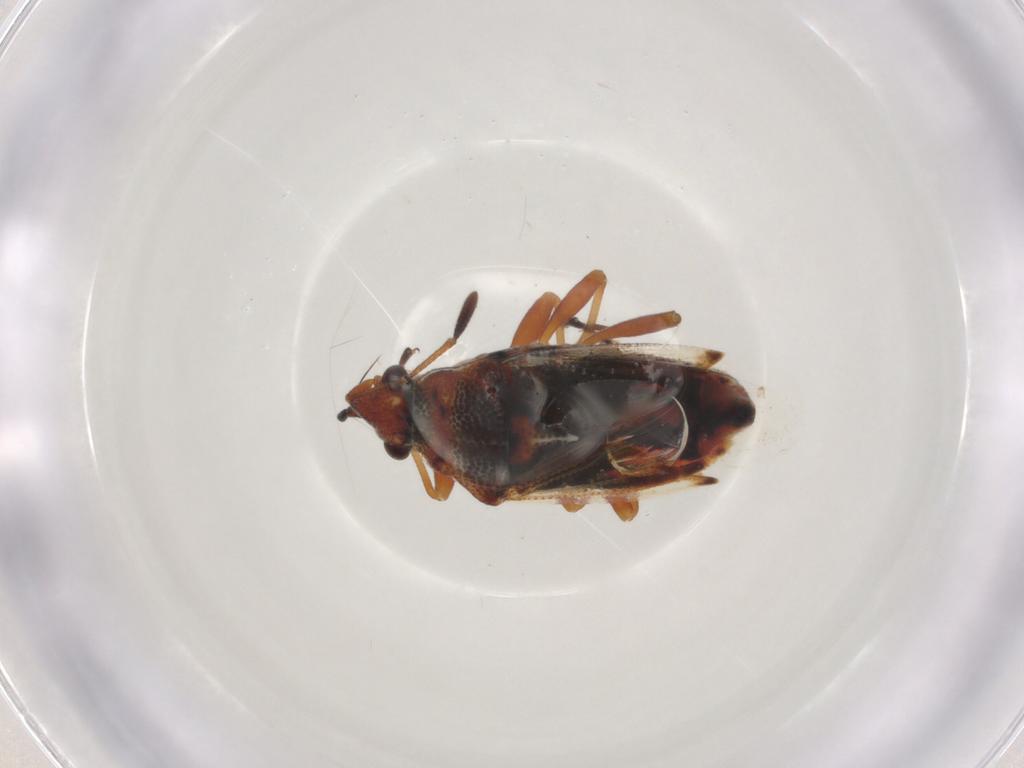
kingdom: Animalia
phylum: Arthropoda
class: Insecta
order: Hemiptera
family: Lygaeidae
